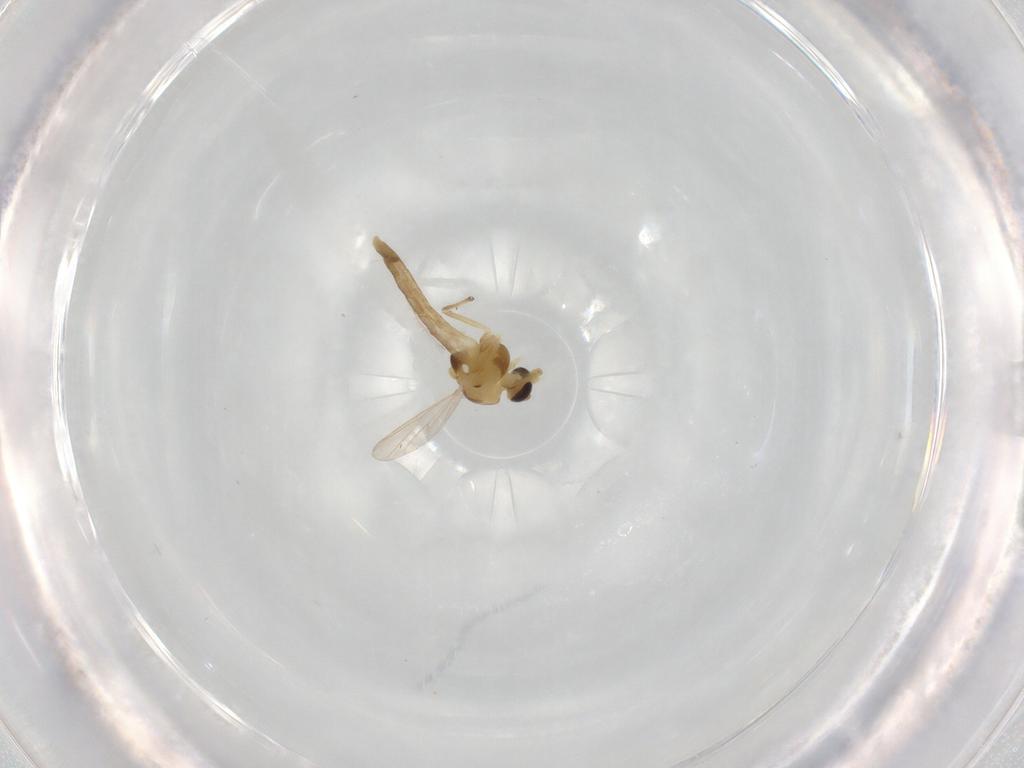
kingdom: Animalia
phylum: Arthropoda
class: Insecta
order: Diptera
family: Chironomidae
